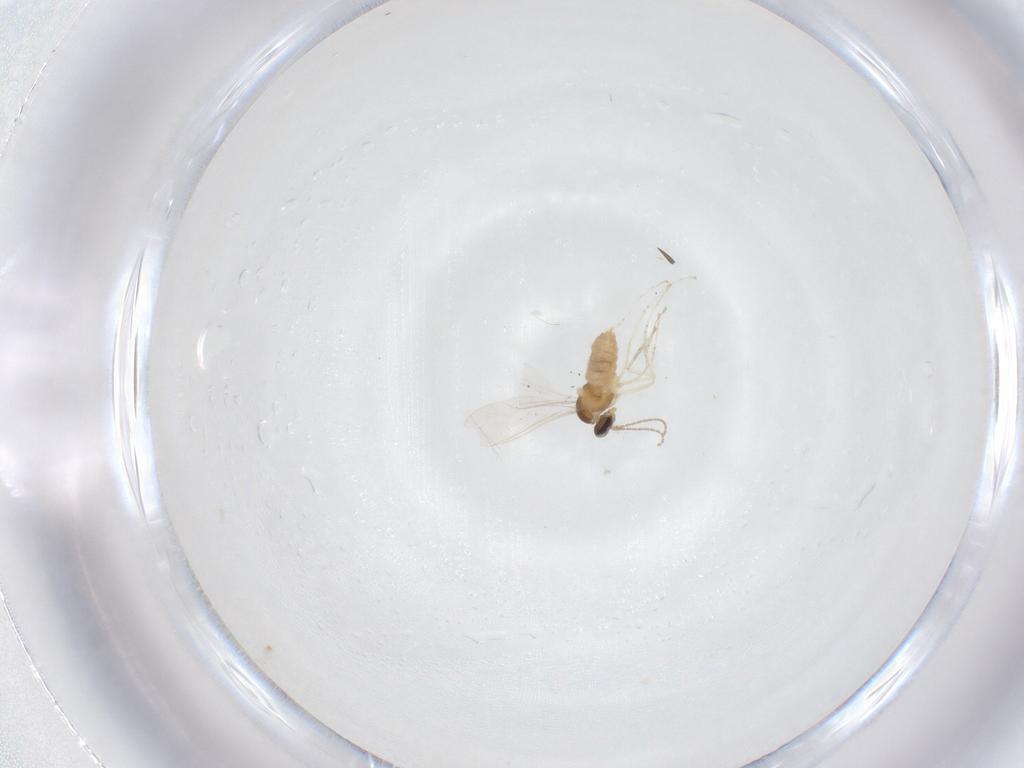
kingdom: Animalia
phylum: Arthropoda
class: Insecta
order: Diptera
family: Cecidomyiidae
